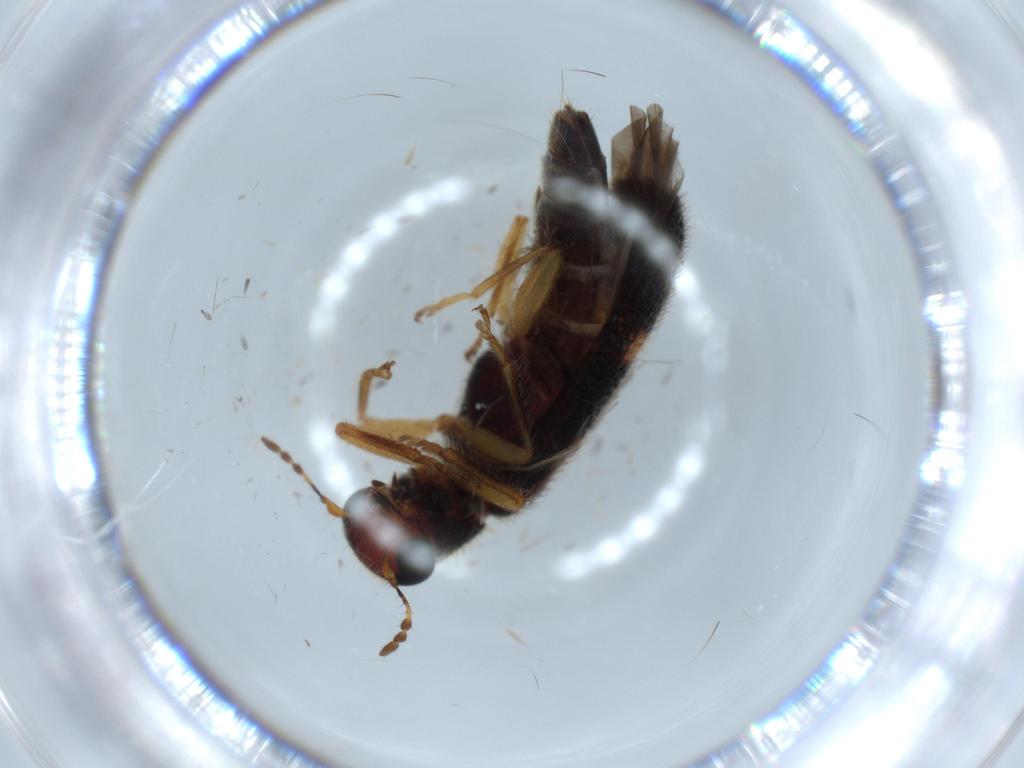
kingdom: Animalia
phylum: Arthropoda
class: Insecta
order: Coleoptera
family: Cleridae
